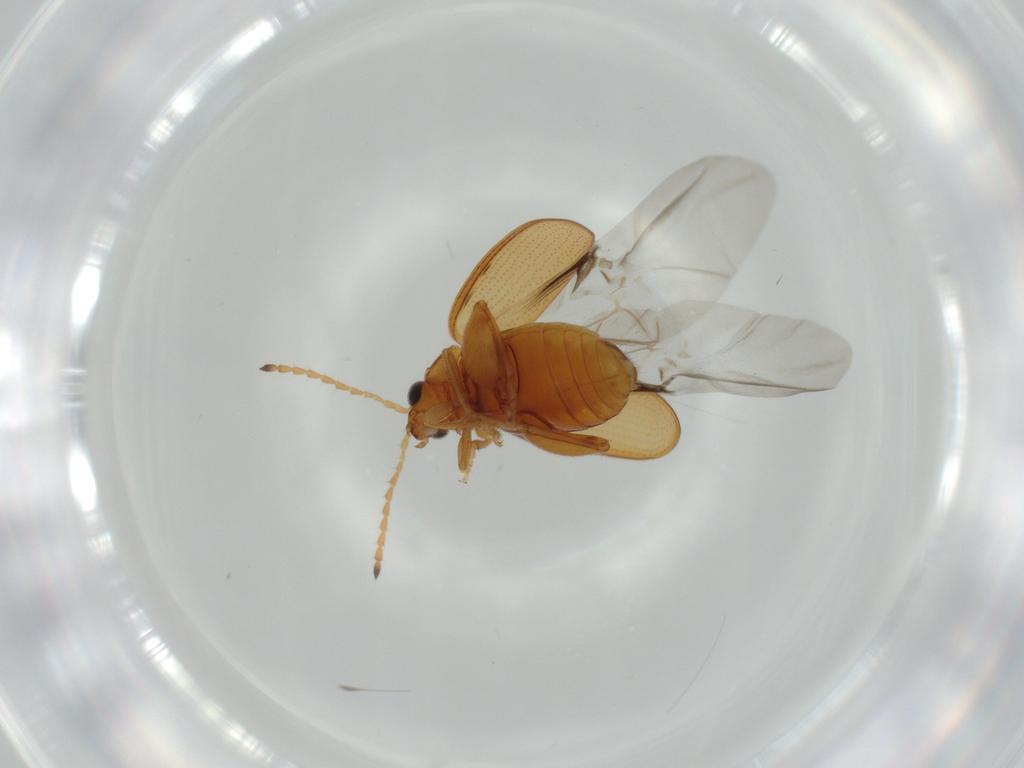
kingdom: Animalia
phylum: Arthropoda
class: Insecta
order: Coleoptera
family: Chrysomelidae
